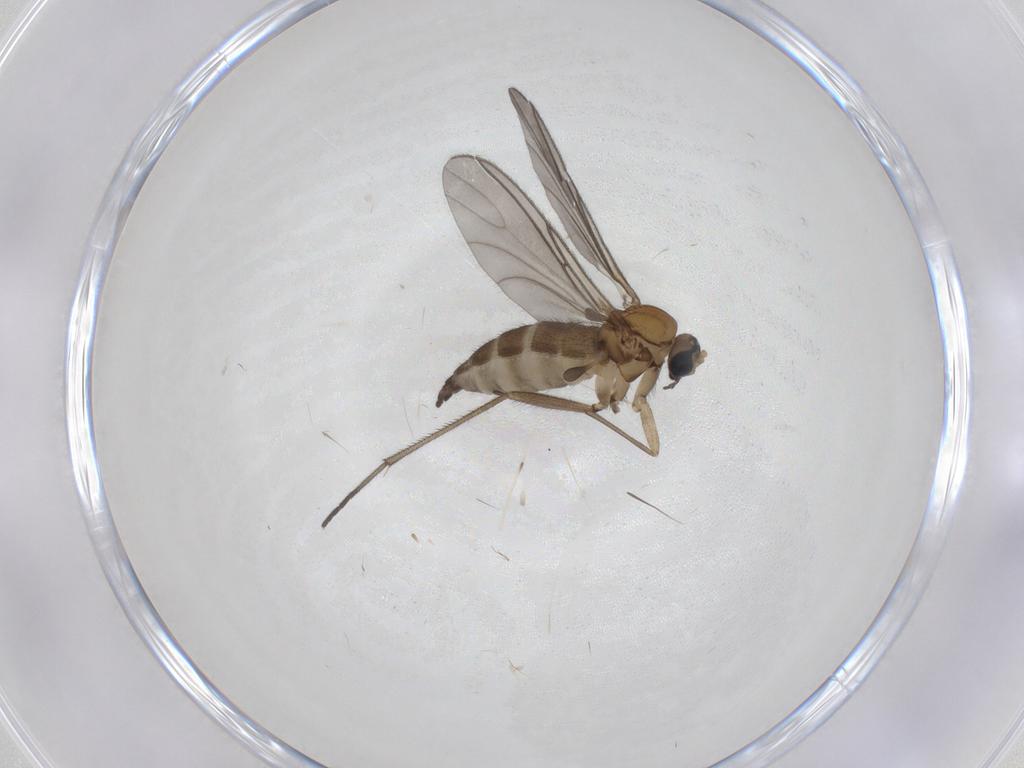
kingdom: Animalia
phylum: Arthropoda
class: Insecta
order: Diptera
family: Sciaridae
